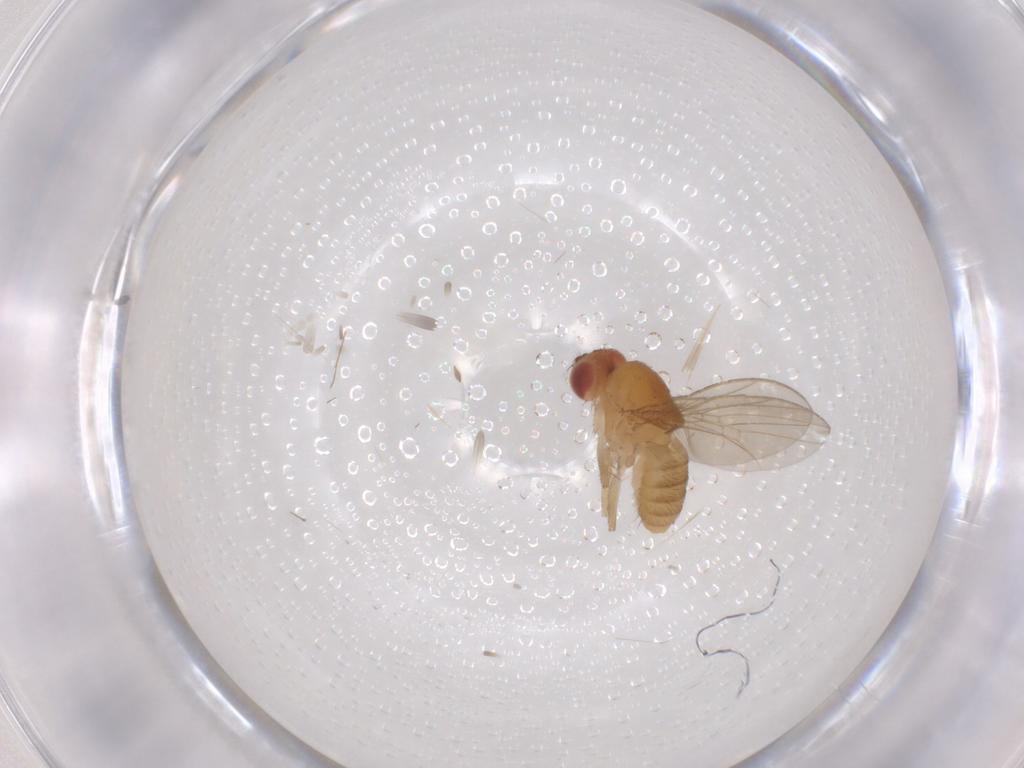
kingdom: Animalia
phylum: Arthropoda
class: Insecta
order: Diptera
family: Drosophilidae
